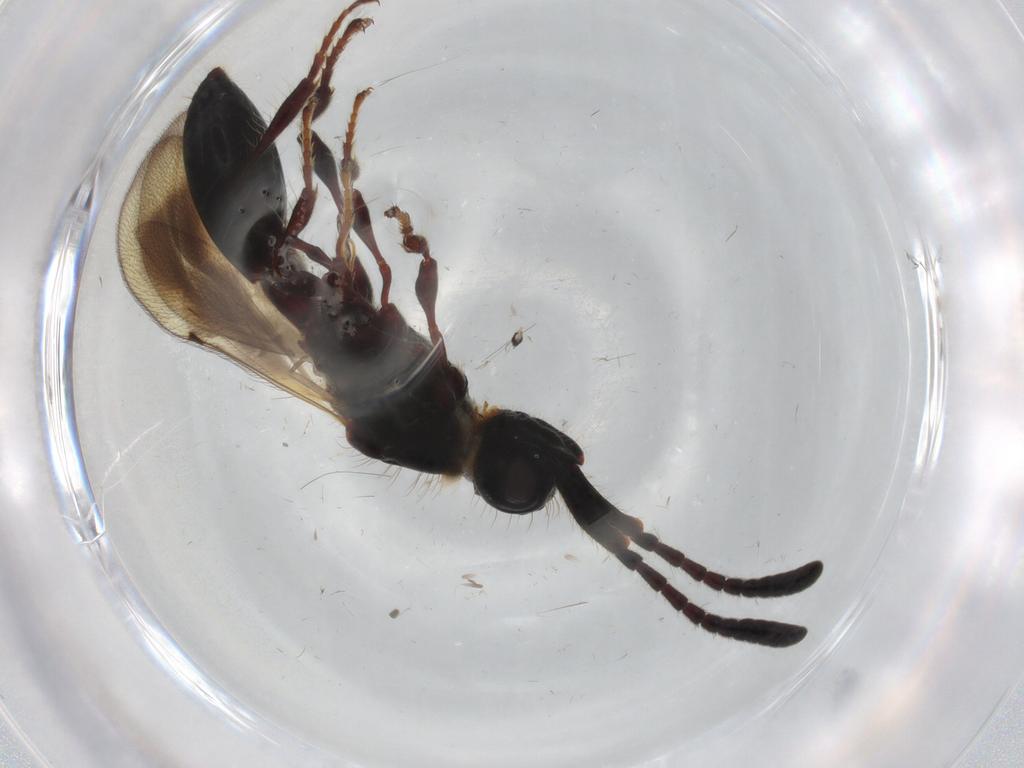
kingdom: Animalia
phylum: Arthropoda
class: Insecta
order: Hymenoptera
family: Diapriidae
